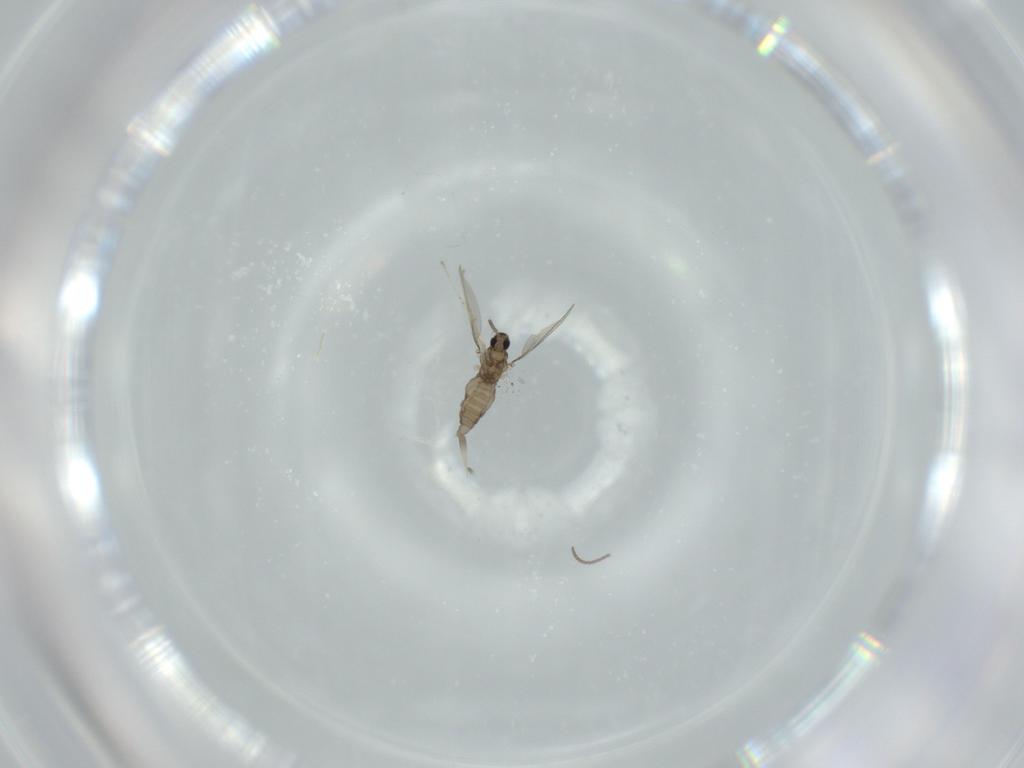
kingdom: Animalia
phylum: Arthropoda
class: Insecta
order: Diptera
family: Cecidomyiidae
